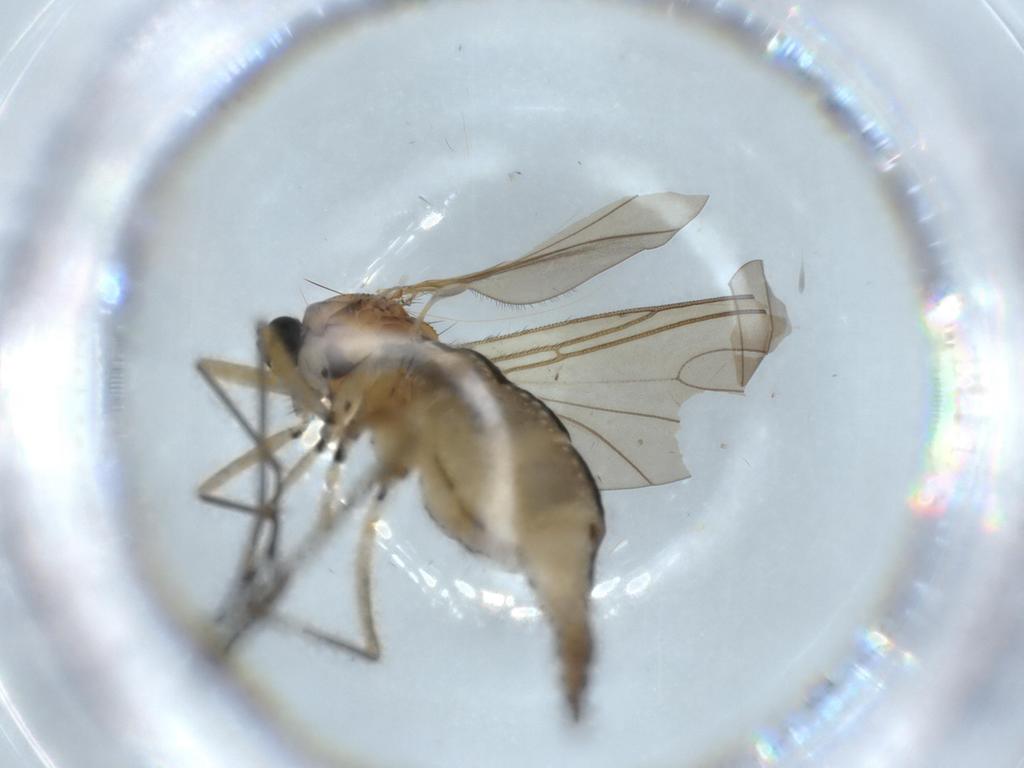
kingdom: Animalia
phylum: Arthropoda
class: Insecta
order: Diptera
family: Sciaridae
